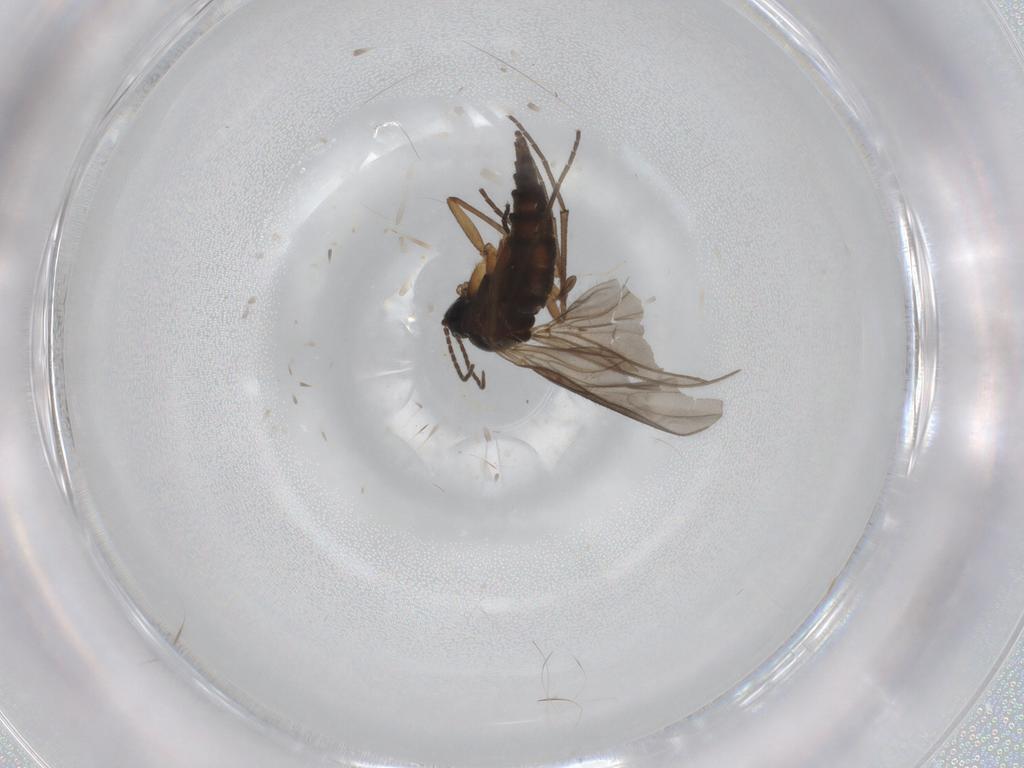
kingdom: Animalia
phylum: Arthropoda
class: Insecta
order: Diptera
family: Sciaridae
